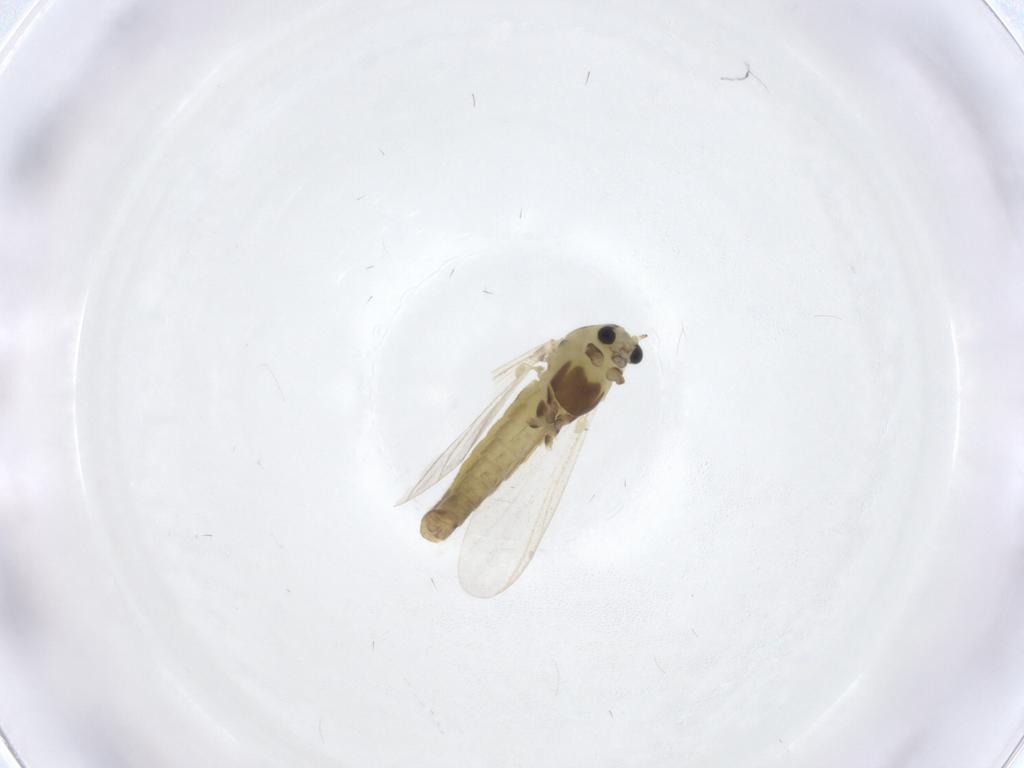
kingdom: Animalia
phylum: Arthropoda
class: Insecta
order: Diptera
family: Chironomidae
